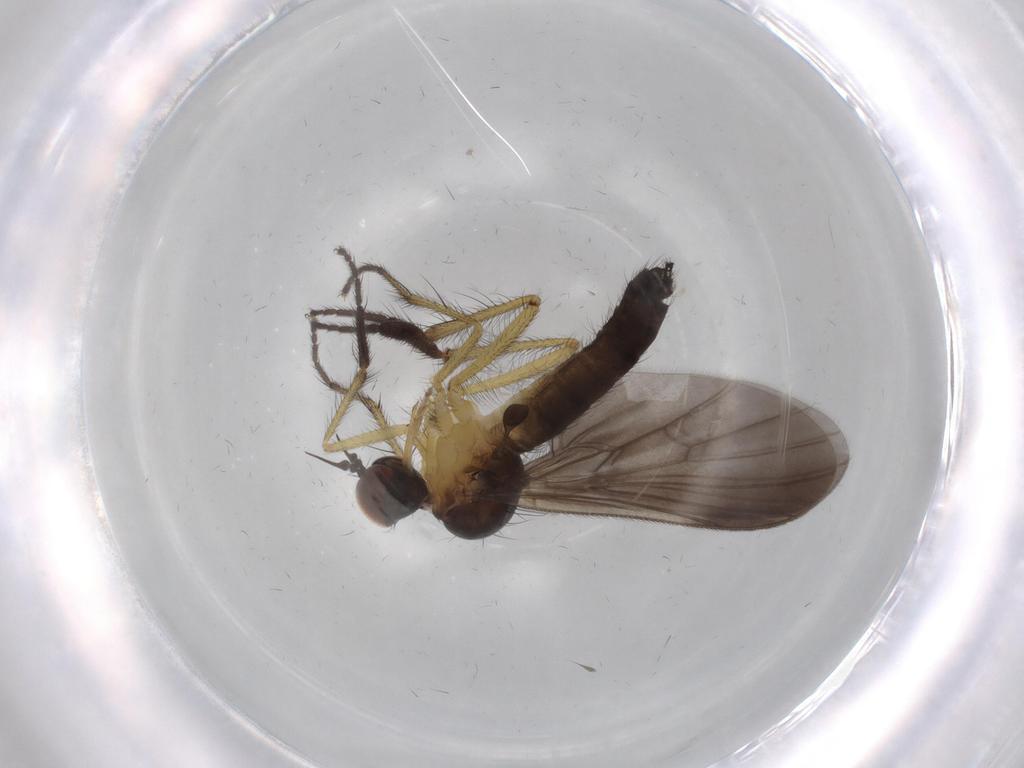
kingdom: Animalia
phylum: Arthropoda
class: Insecta
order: Diptera
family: Empididae
